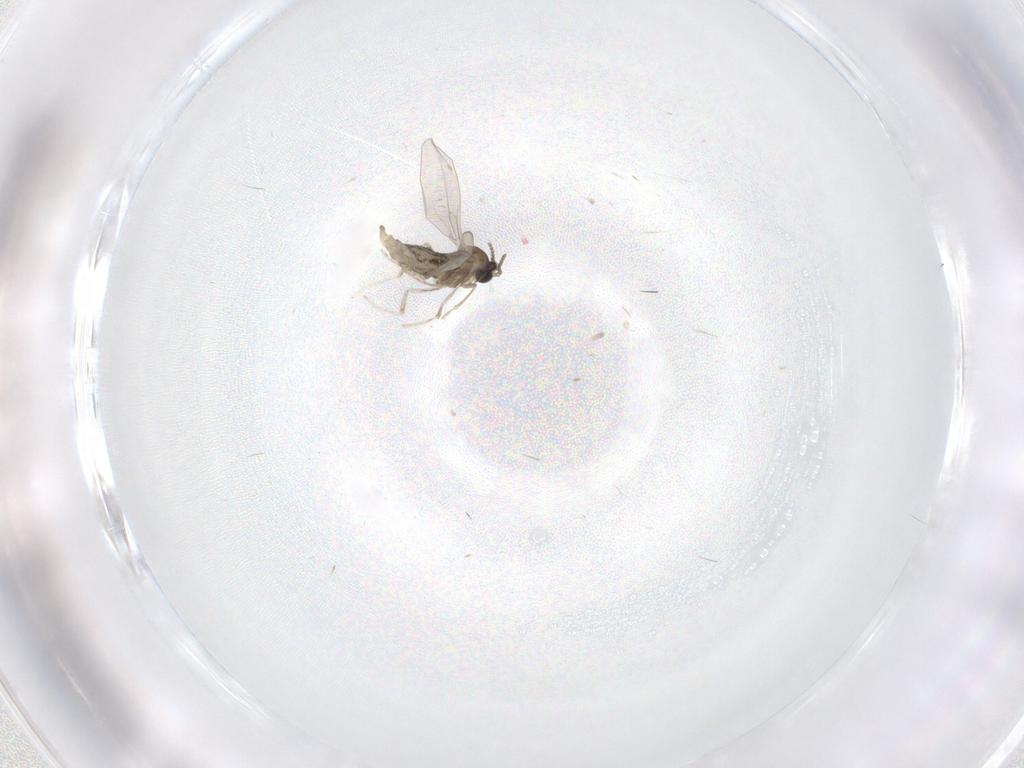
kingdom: Animalia
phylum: Arthropoda
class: Insecta
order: Diptera
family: Cecidomyiidae
